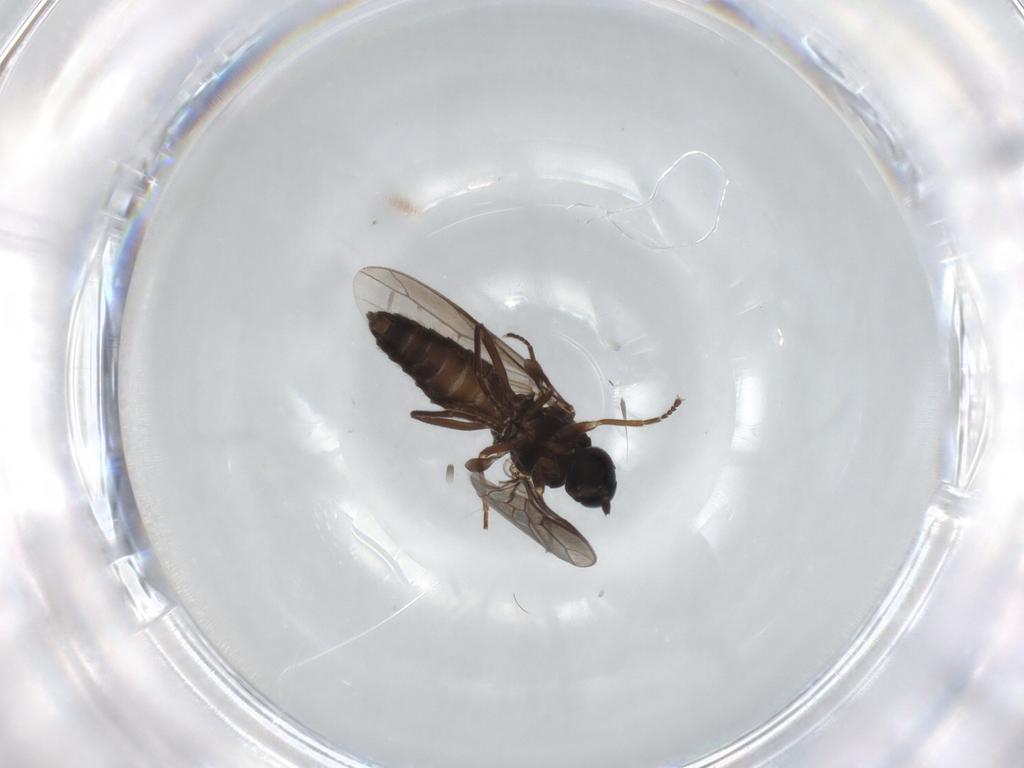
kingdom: Animalia
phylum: Arthropoda
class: Insecta
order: Diptera
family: Scenopinidae
